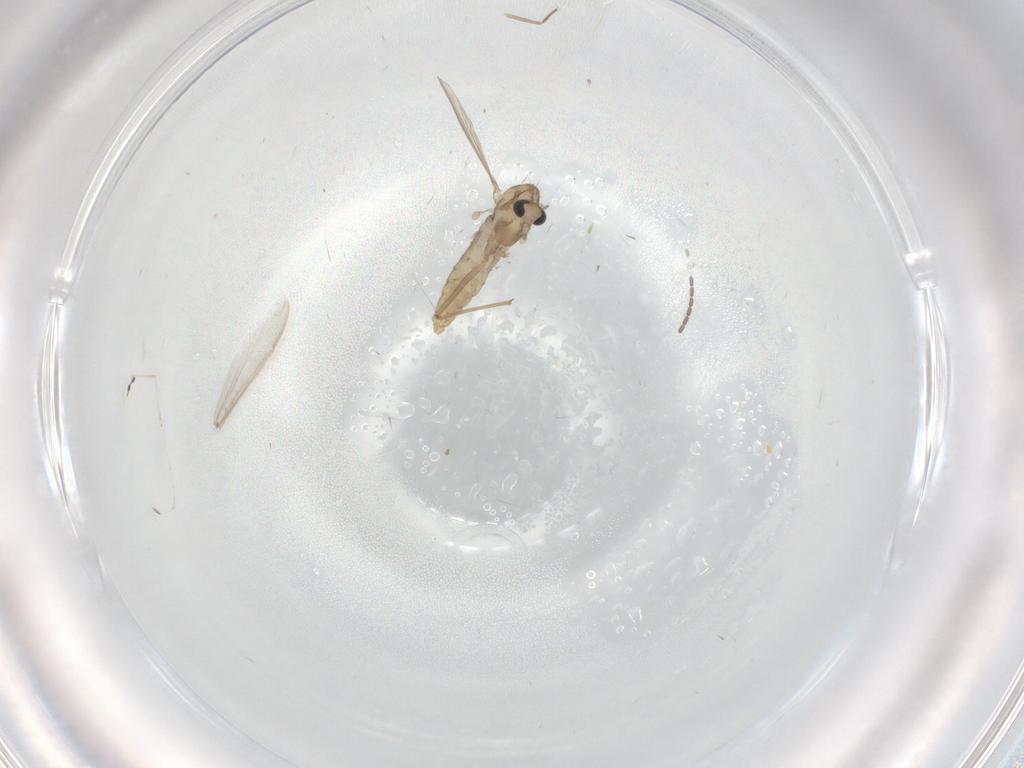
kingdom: Animalia
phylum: Arthropoda
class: Insecta
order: Diptera
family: Chironomidae
